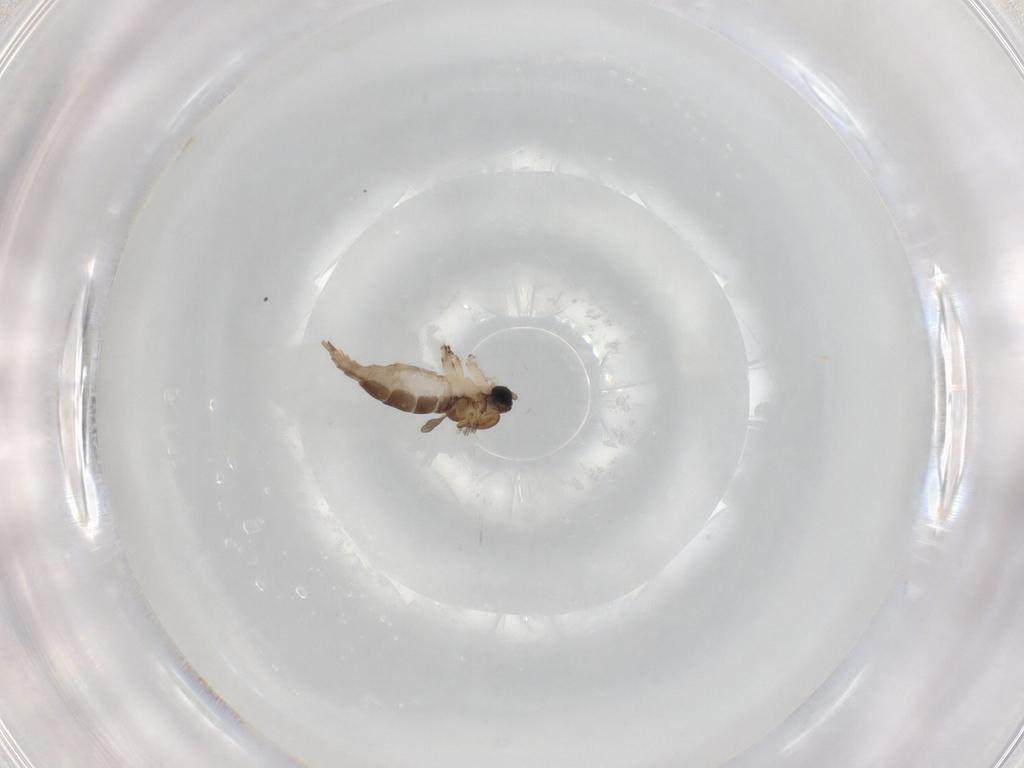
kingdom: Animalia
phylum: Arthropoda
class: Insecta
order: Diptera
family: Sciaridae
